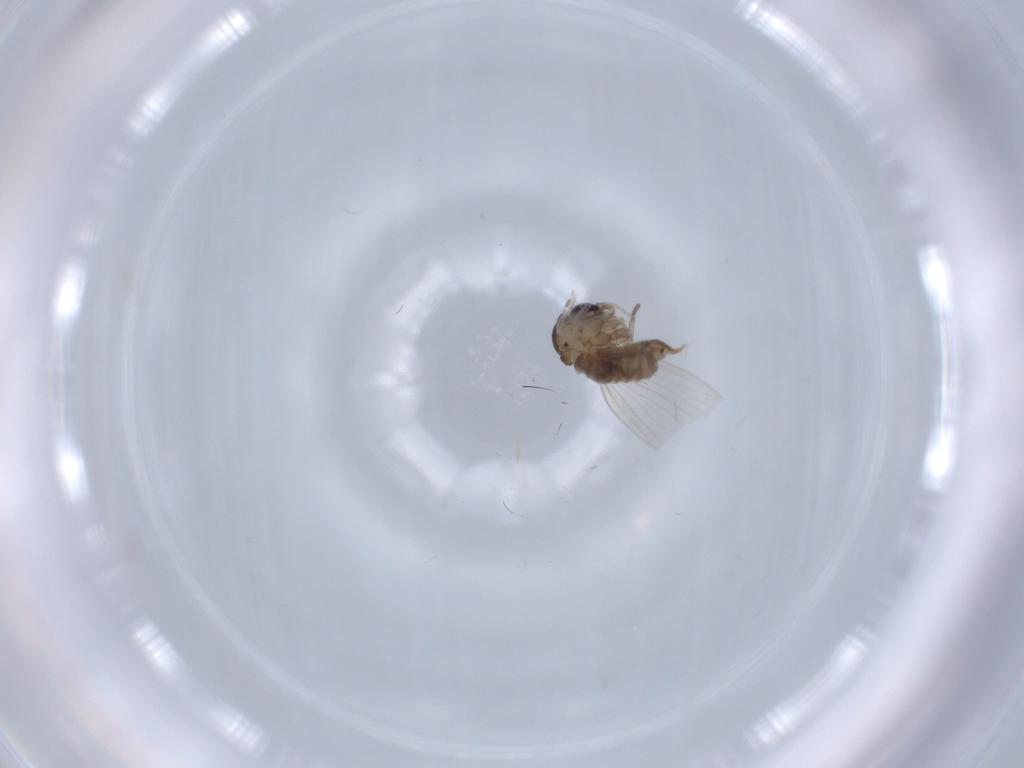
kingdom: Animalia
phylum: Arthropoda
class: Insecta
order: Diptera
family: Psychodidae
